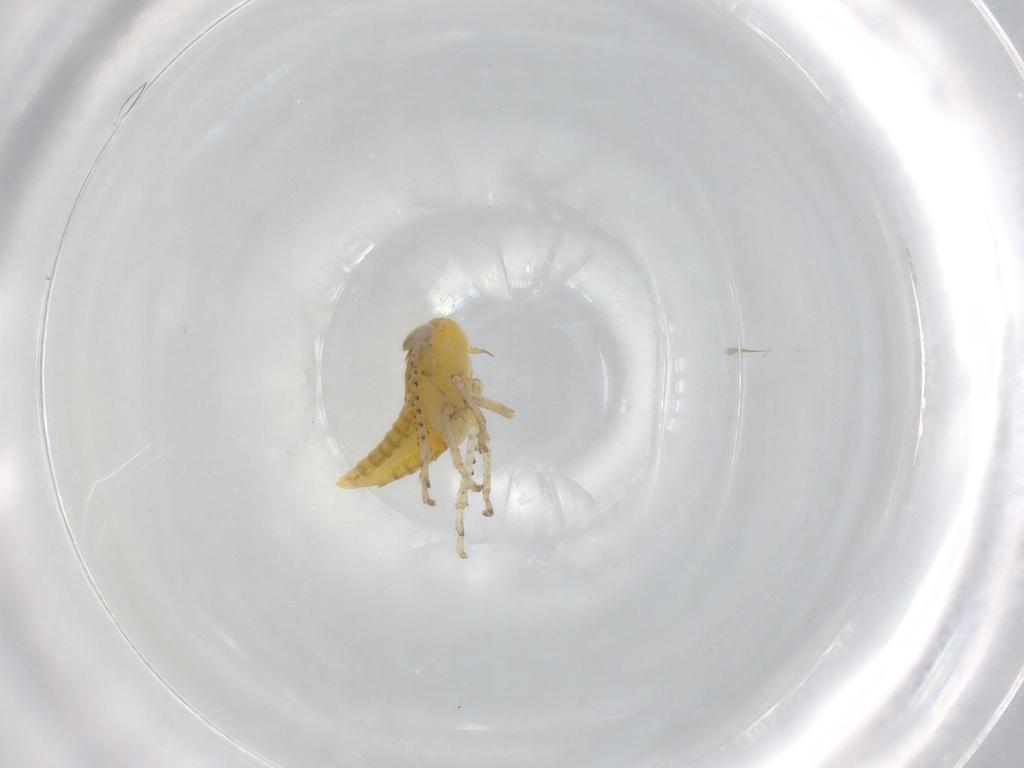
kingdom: Animalia
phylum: Arthropoda
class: Insecta
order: Hemiptera
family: Cicadellidae
